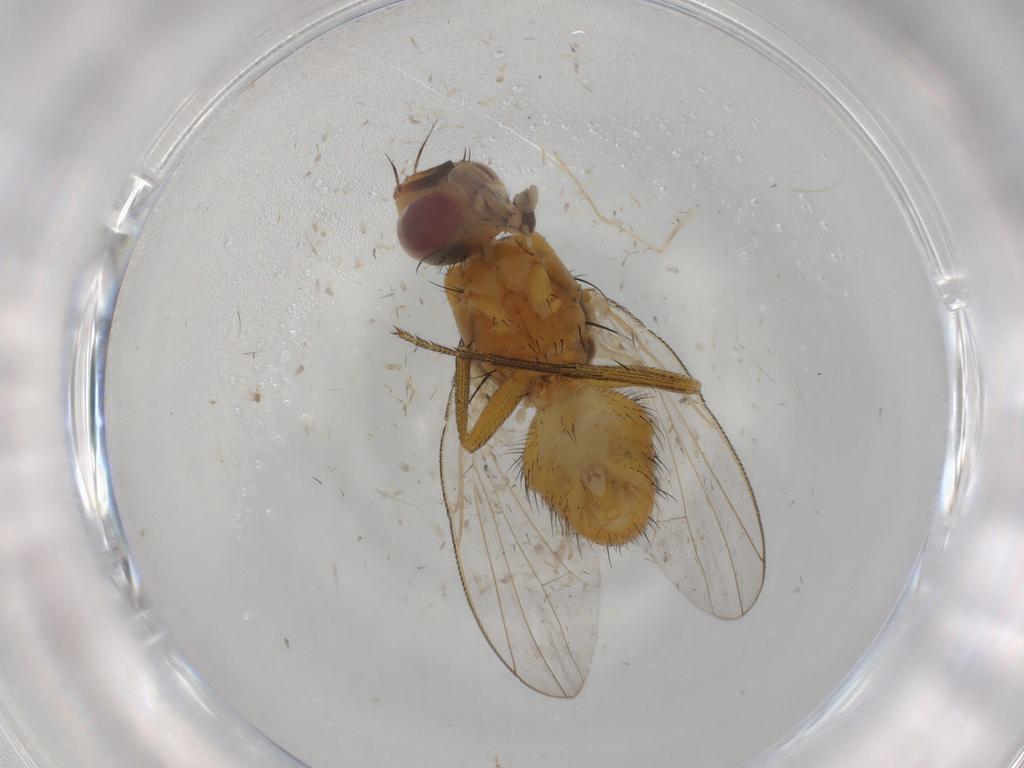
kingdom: Animalia
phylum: Arthropoda
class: Insecta
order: Diptera
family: Muscidae
